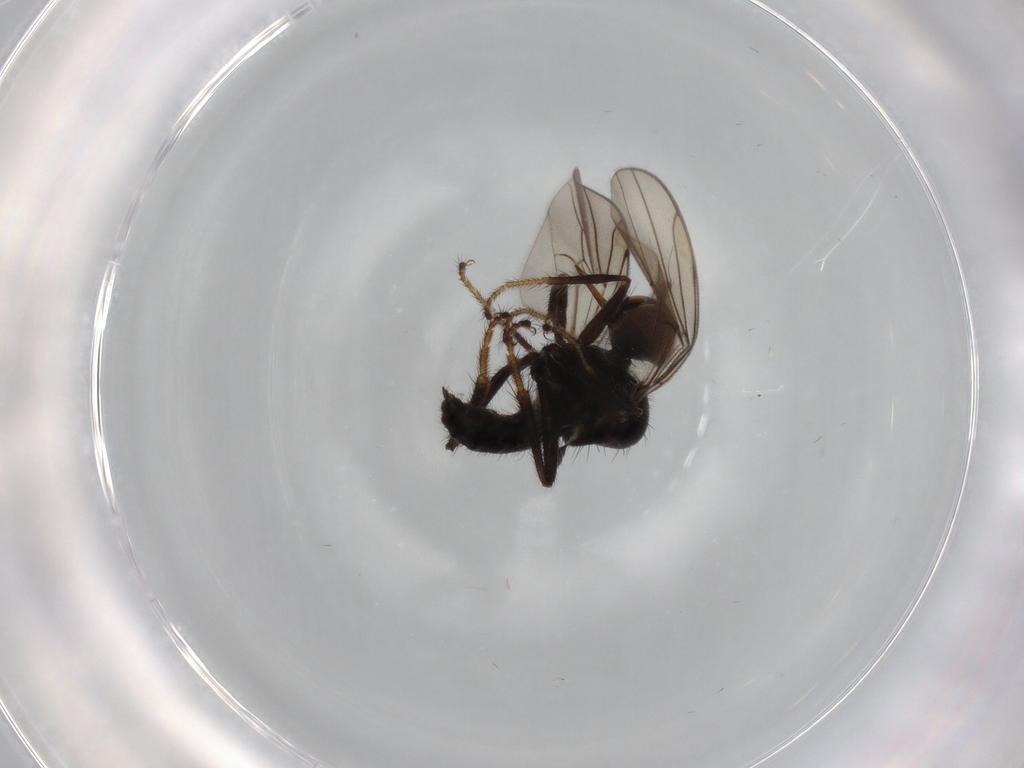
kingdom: Animalia
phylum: Arthropoda
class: Insecta
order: Diptera
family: Hybotidae
